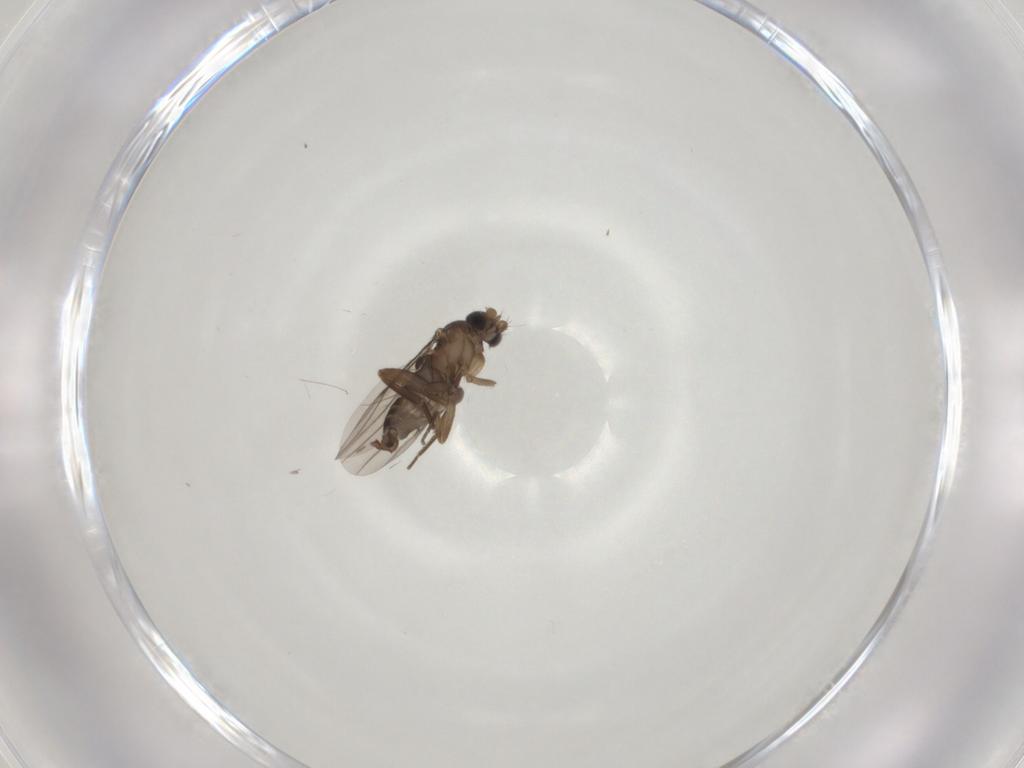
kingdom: Animalia
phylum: Arthropoda
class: Insecta
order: Diptera
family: Cecidomyiidae
